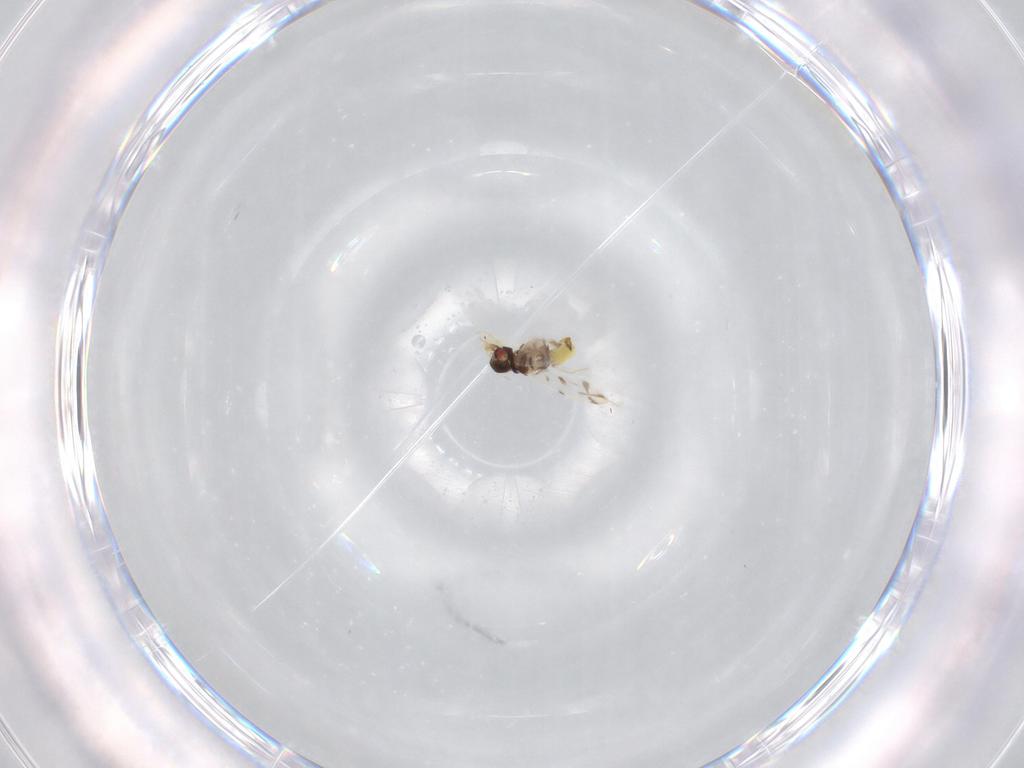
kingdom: Animalia
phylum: Arthropoda
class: Insecta
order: Hemiptera
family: Aleyrodidae
